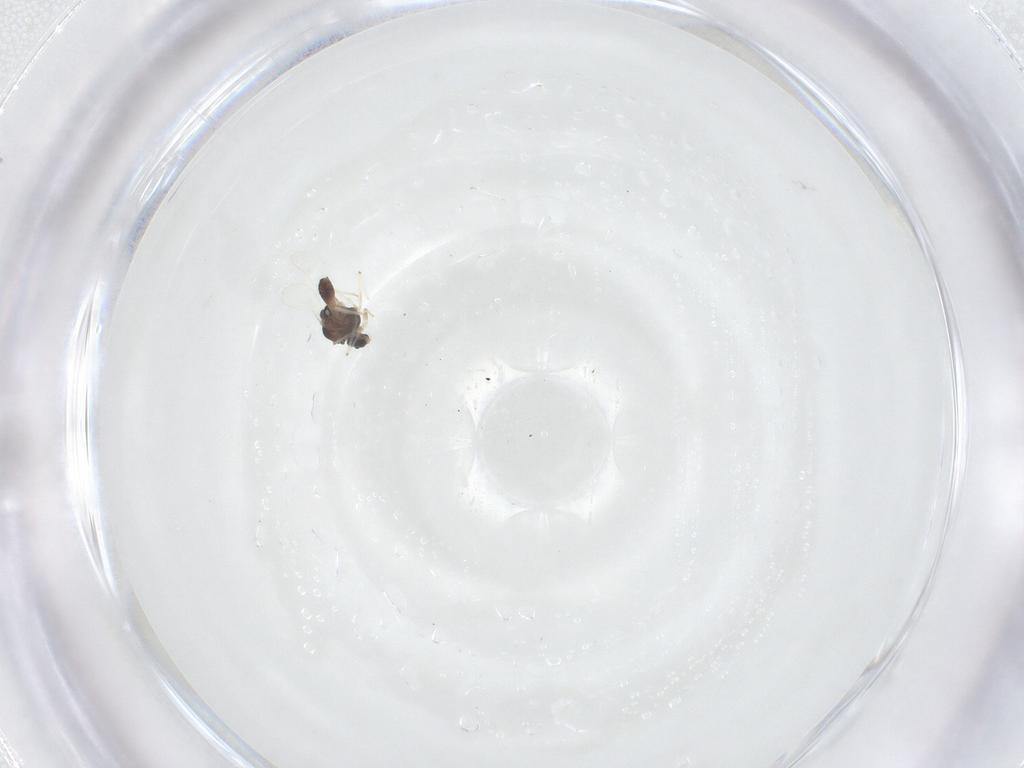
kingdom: Animalia
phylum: Arthropoda
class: Insecta
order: Diptera
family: Chironomidae
